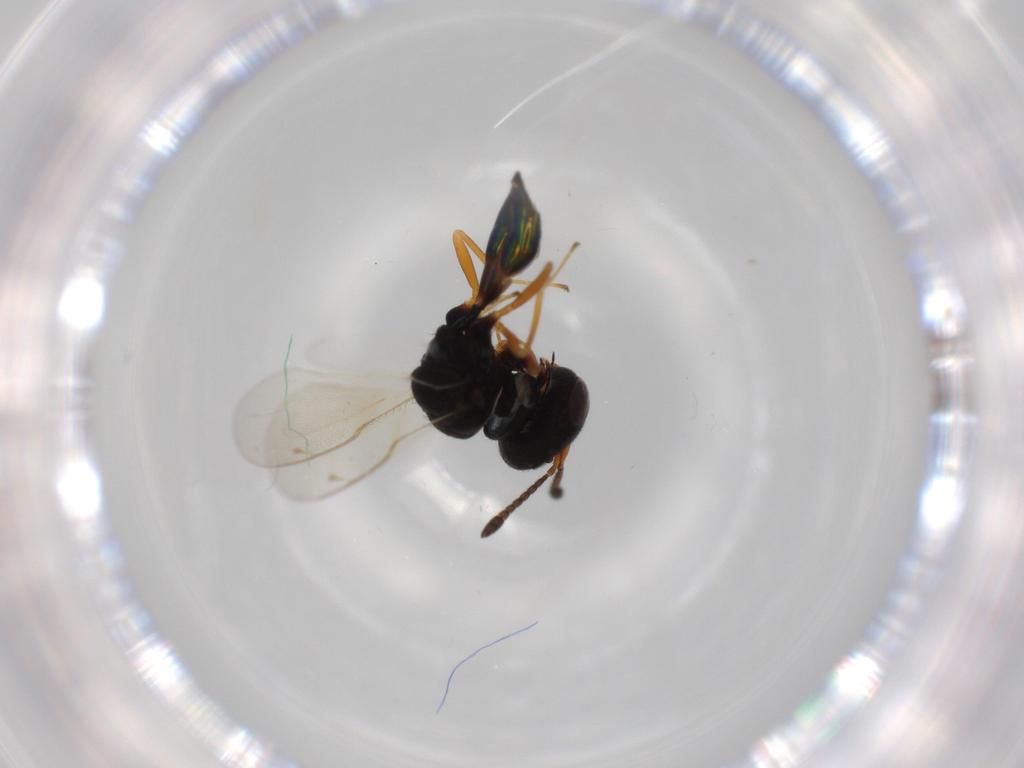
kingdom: Animalia
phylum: Arthropoda
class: Insecta
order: Hymenoptera
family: Pteromalidae
